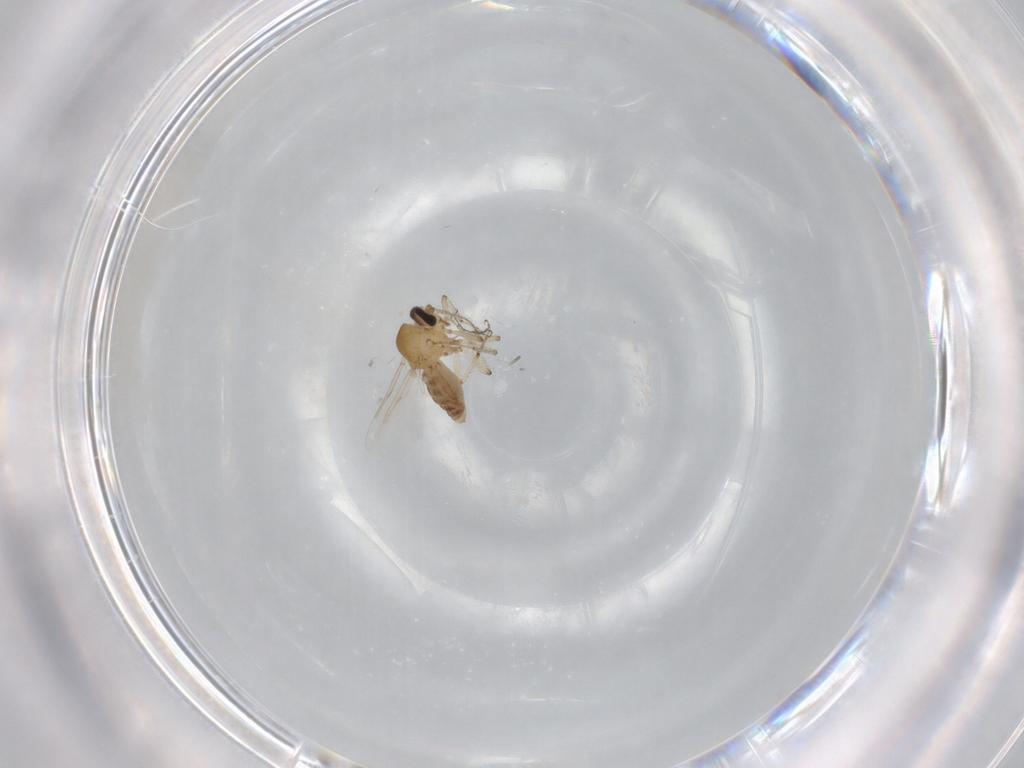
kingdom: Animalia
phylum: Arthropoda
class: Insecta
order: Diptera
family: Ceratopogonidae
